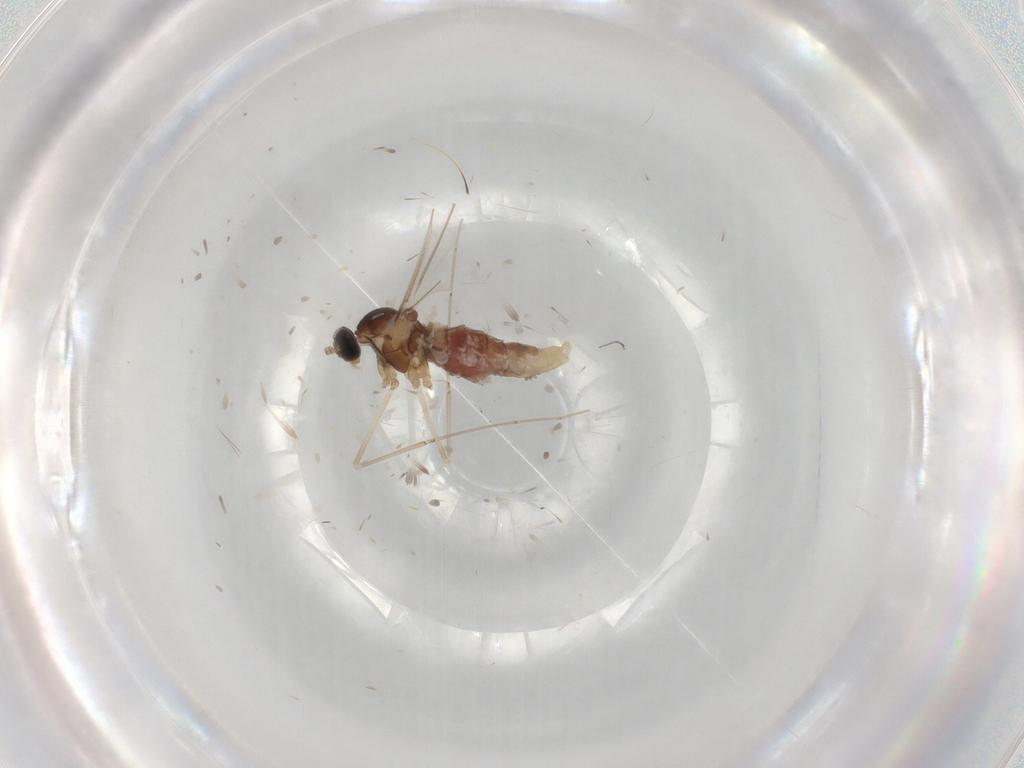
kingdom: Animalia
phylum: Arthropoda
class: Insecta
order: Diptera
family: Cecidomyiidae
